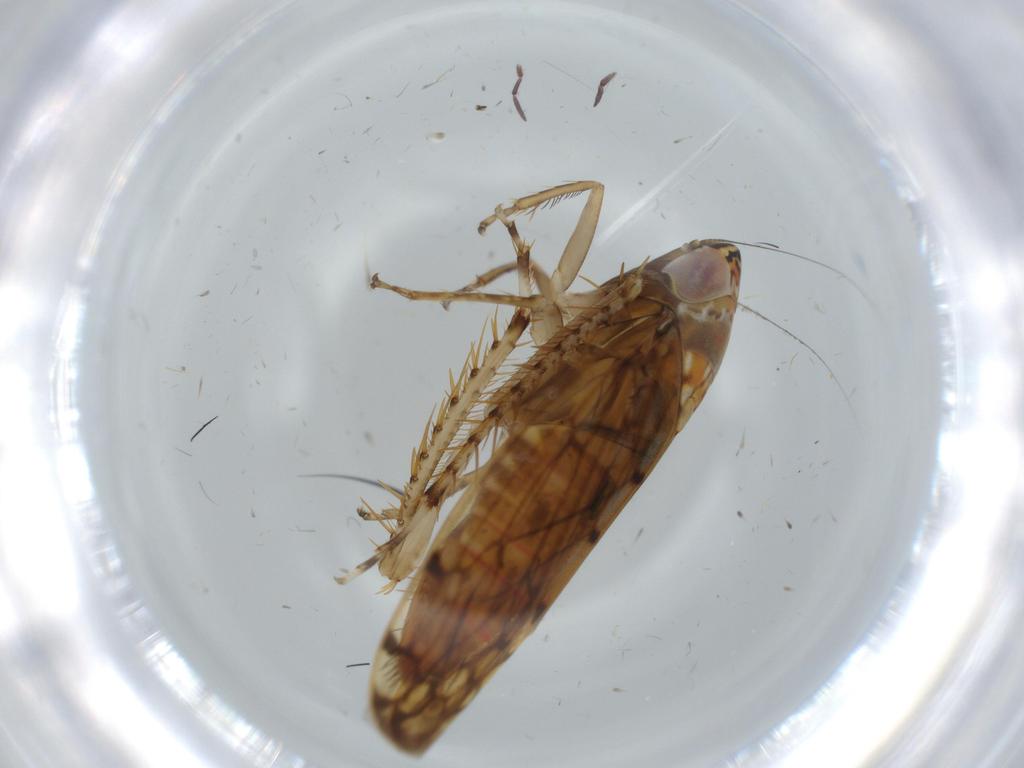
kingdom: Animalia
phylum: Arthropoda
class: Insecta
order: Hemiptera
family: Cicadellidae
